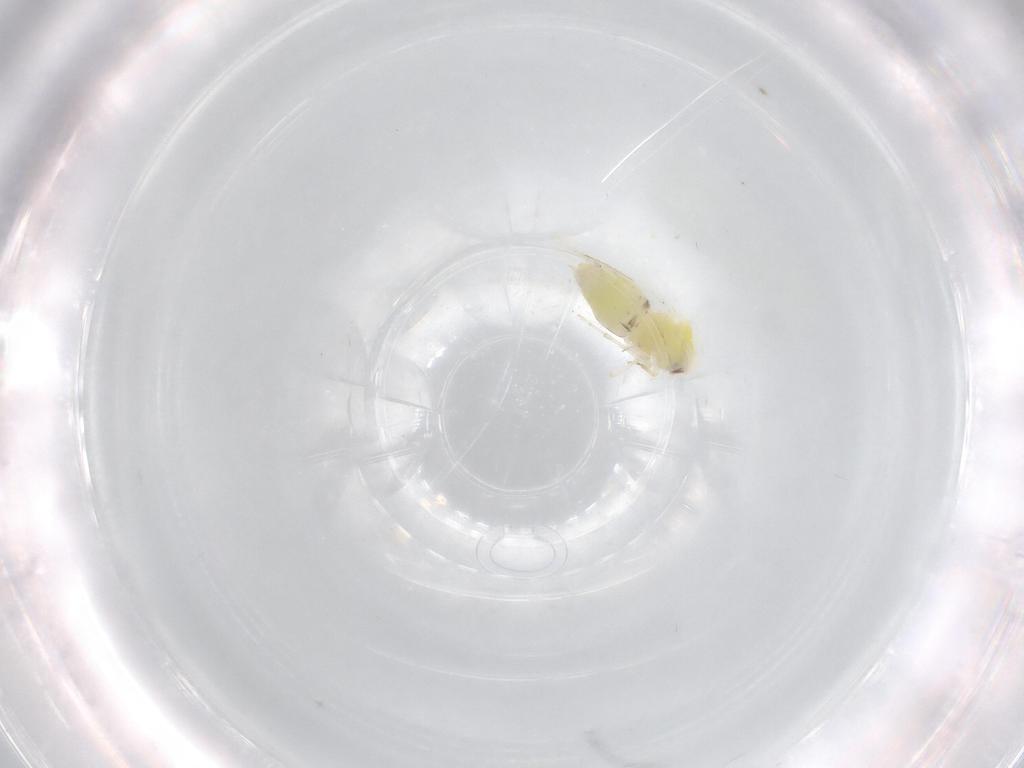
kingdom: Animalia
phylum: Arthropoda
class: Insecta
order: Hemiptera
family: Aleyrodidae
